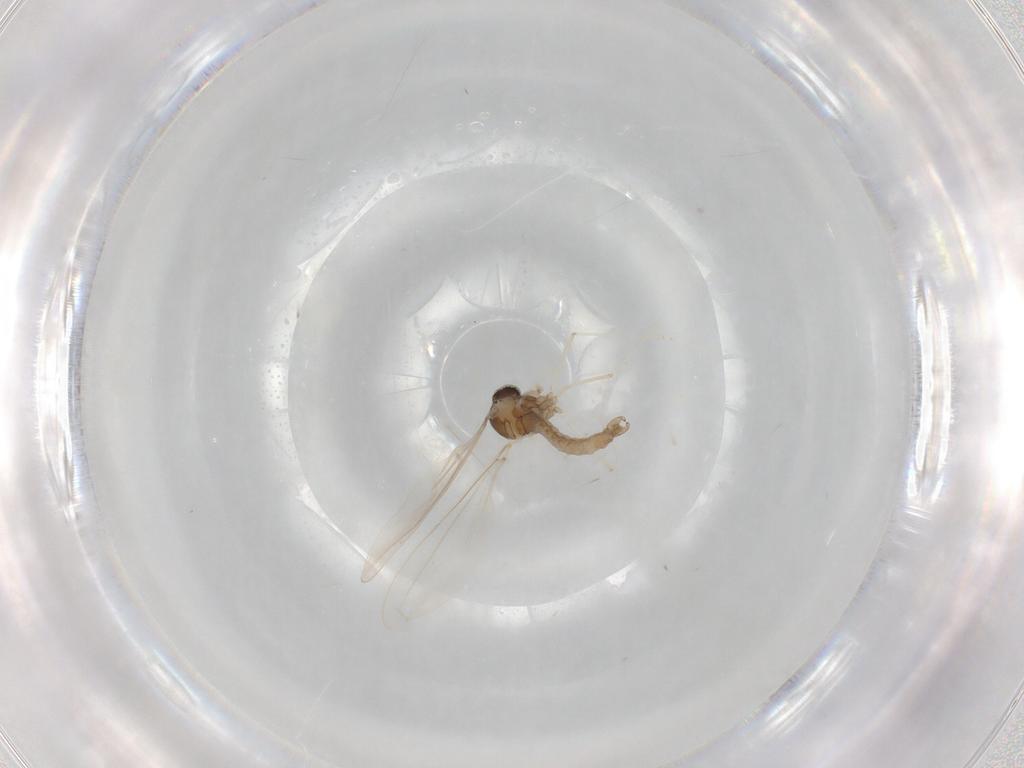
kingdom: Animalia
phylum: Arthropoda
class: Insecta
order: Diptera
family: Cecidomyiidae
